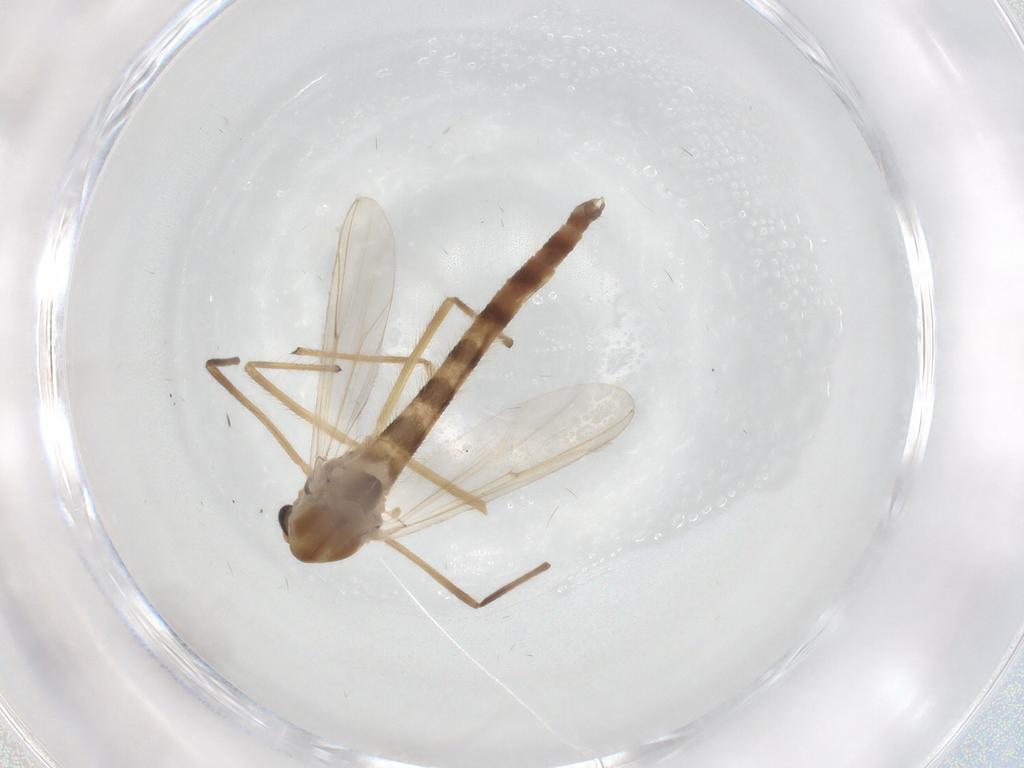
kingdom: Animalia
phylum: Arthropoda
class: Insecta
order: Diptera
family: Chironomidae
